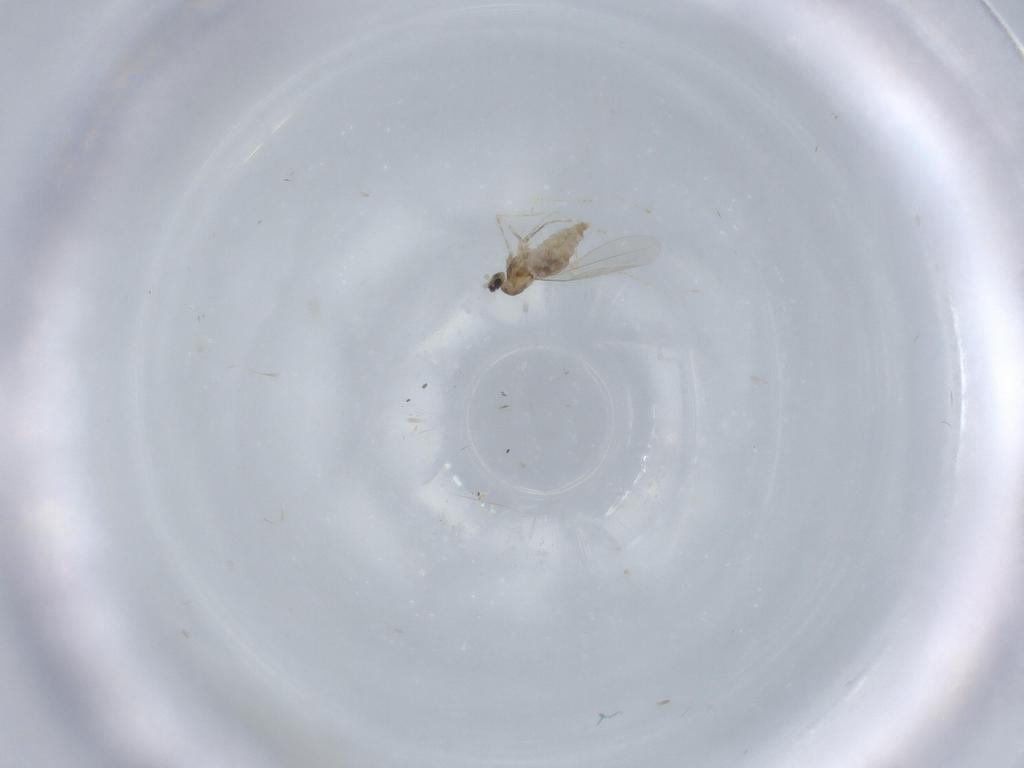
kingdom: Animalia
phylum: Arthropoda
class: Insecta
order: Diptera
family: Cecidomyiidae
